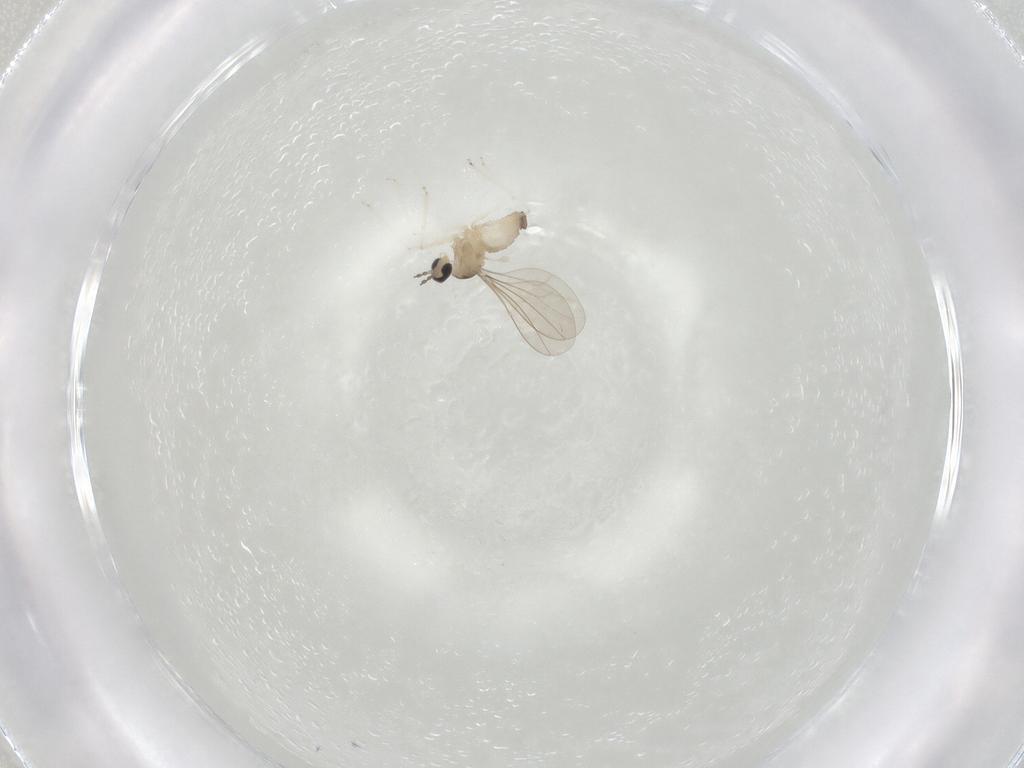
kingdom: Animalia
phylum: Arthropoda
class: Insecta
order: Diptera
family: Cecidomyiidae
